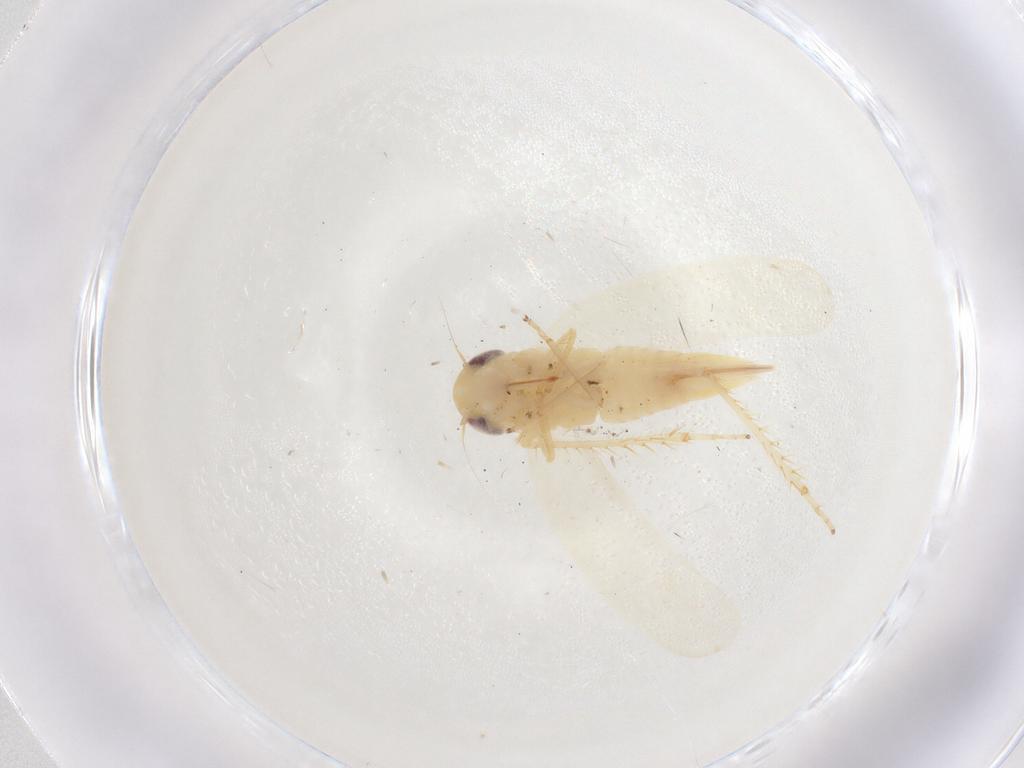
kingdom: Animalia
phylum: Arthropoda
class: Insecta
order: Hemiptera
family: Cicadellidae
